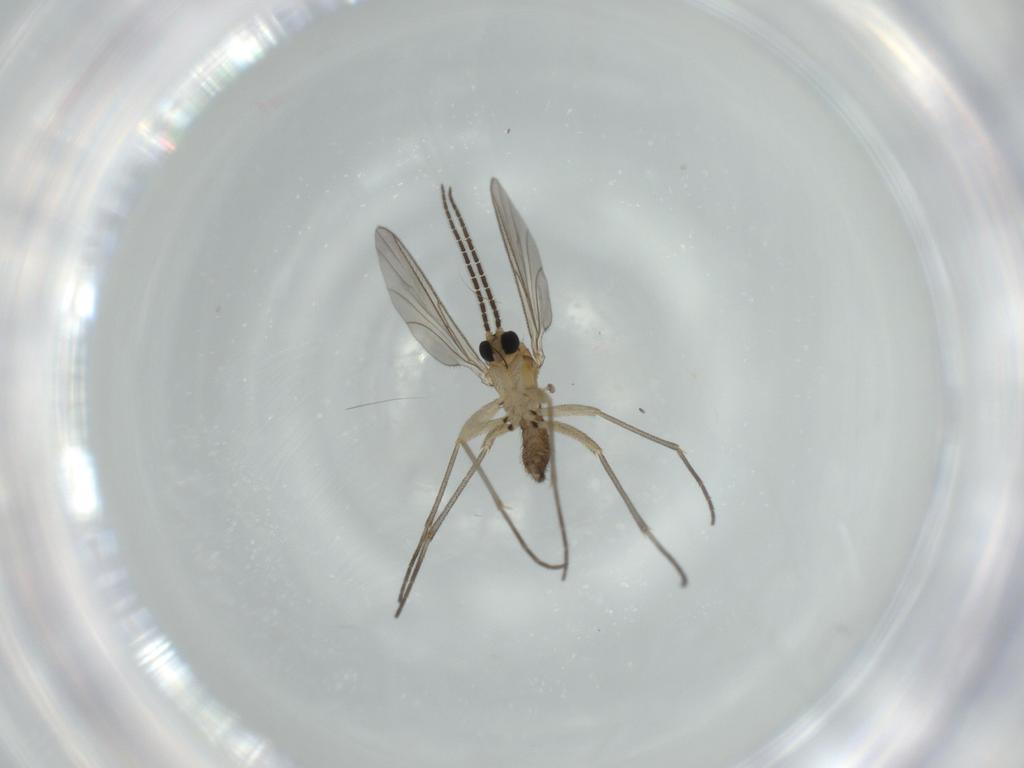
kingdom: Animalia
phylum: Arthropoda
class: Insecta
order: Diptera
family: Sciaridae
